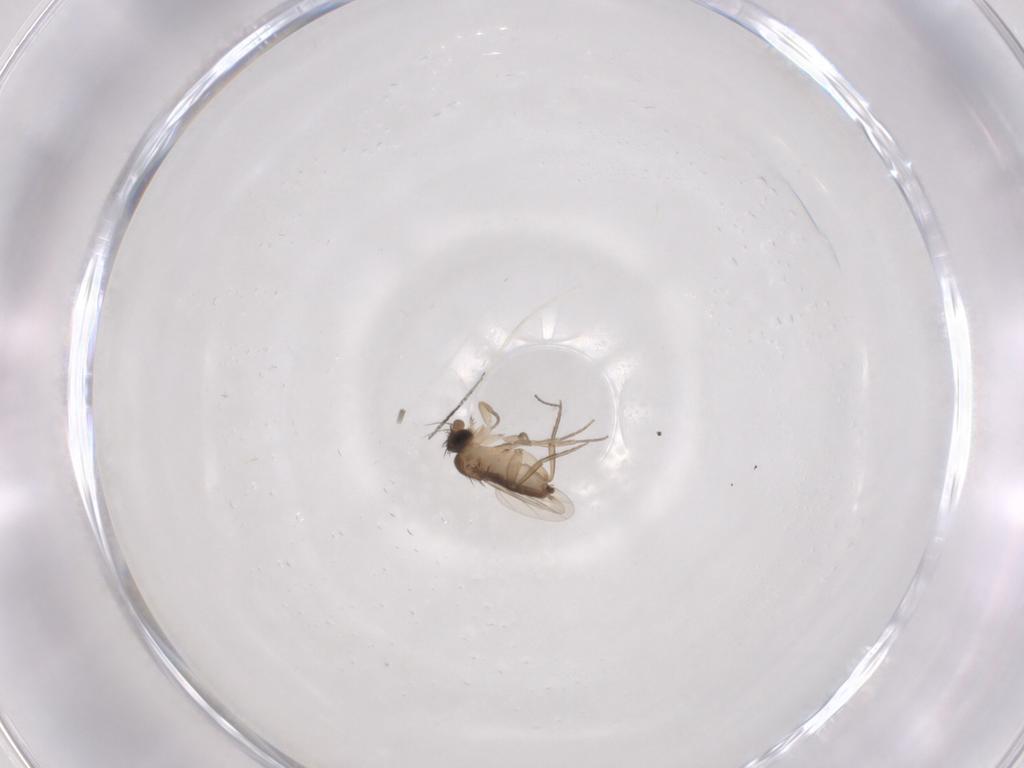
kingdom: Animalia
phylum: Arthropoda
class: Insecta
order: Diptera
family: Phoridae
